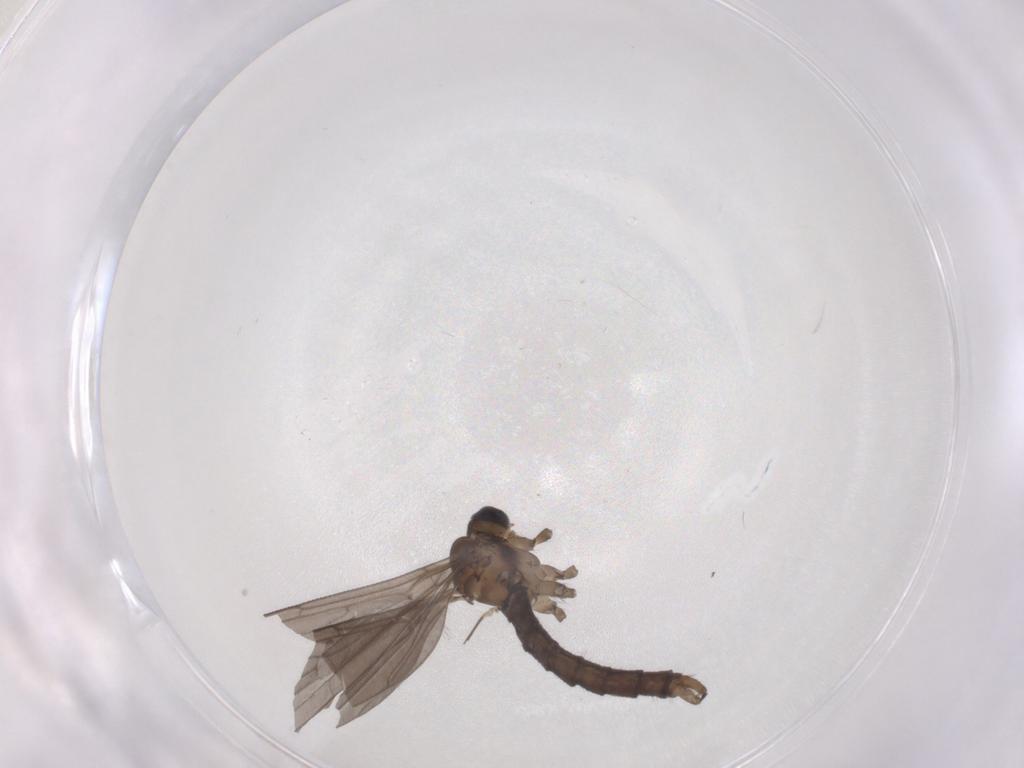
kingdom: Animalia
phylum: Arthropoda
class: Insecta
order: Diptera
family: Limoniidae
